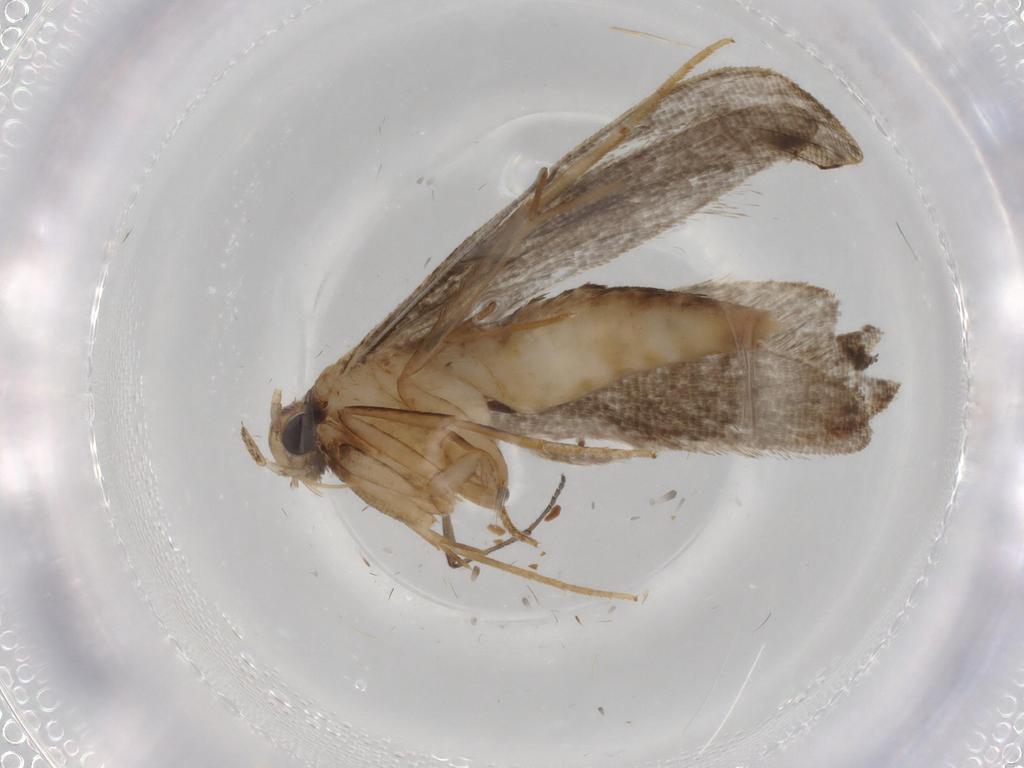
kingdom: Animalia
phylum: Arthropoda
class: Insecta
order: Lepidoptera
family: Tineidae
